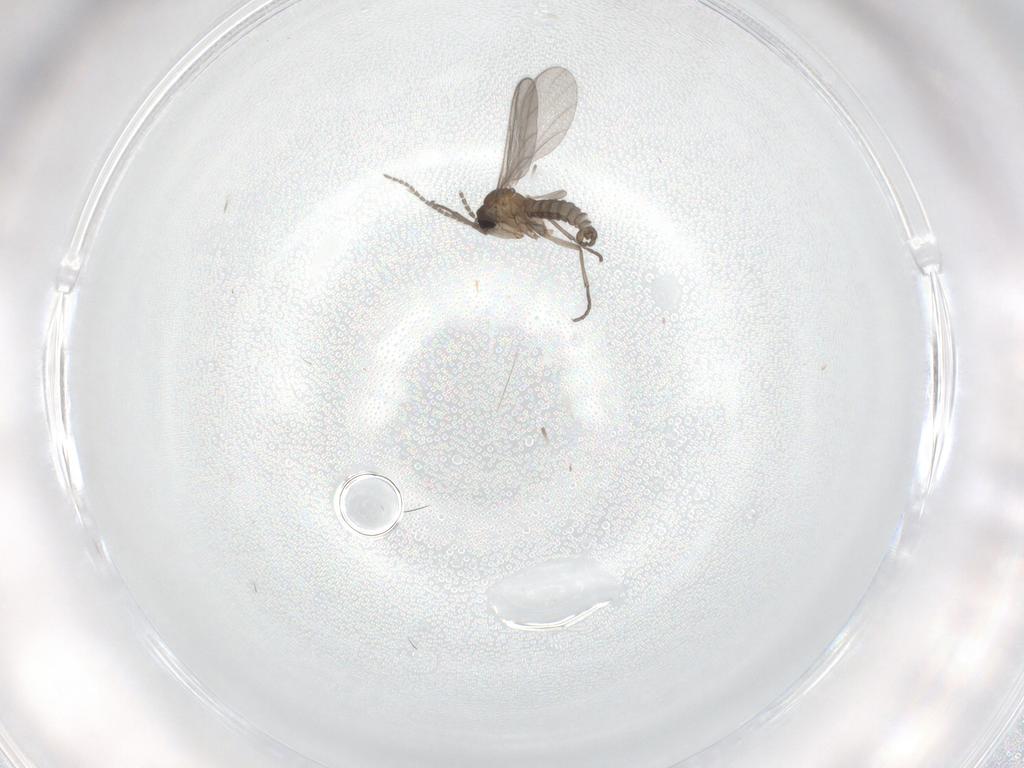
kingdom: Animalia
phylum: Arthropoda
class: Insecta
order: Diptera
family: Sciaridae
